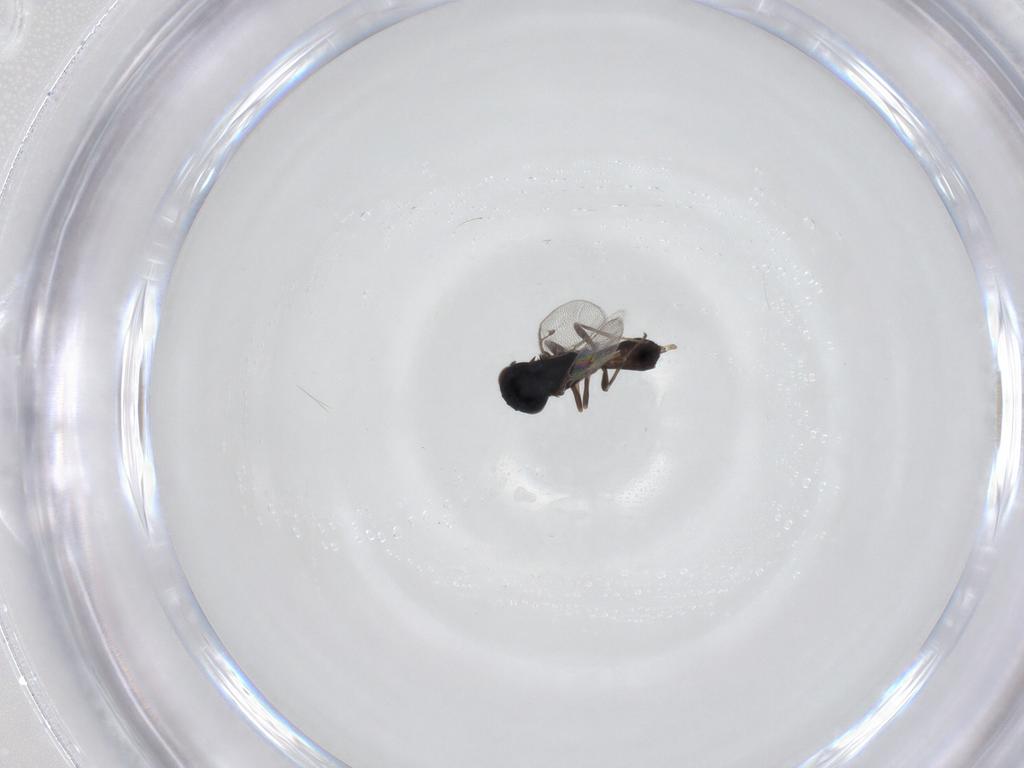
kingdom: Animalia
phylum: Arthropoda
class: Insecta
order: Hymenoptera
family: Pteromalidae
